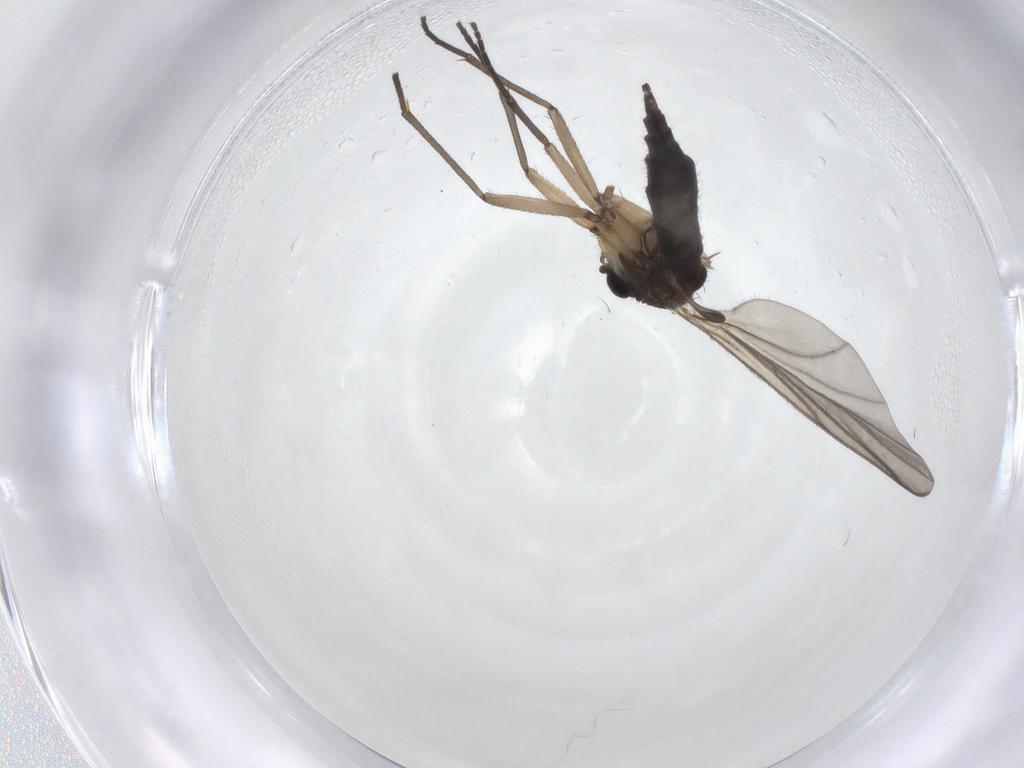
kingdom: Animalia
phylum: Arthropoda
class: Insecta
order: Diptera
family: Sciaridae
